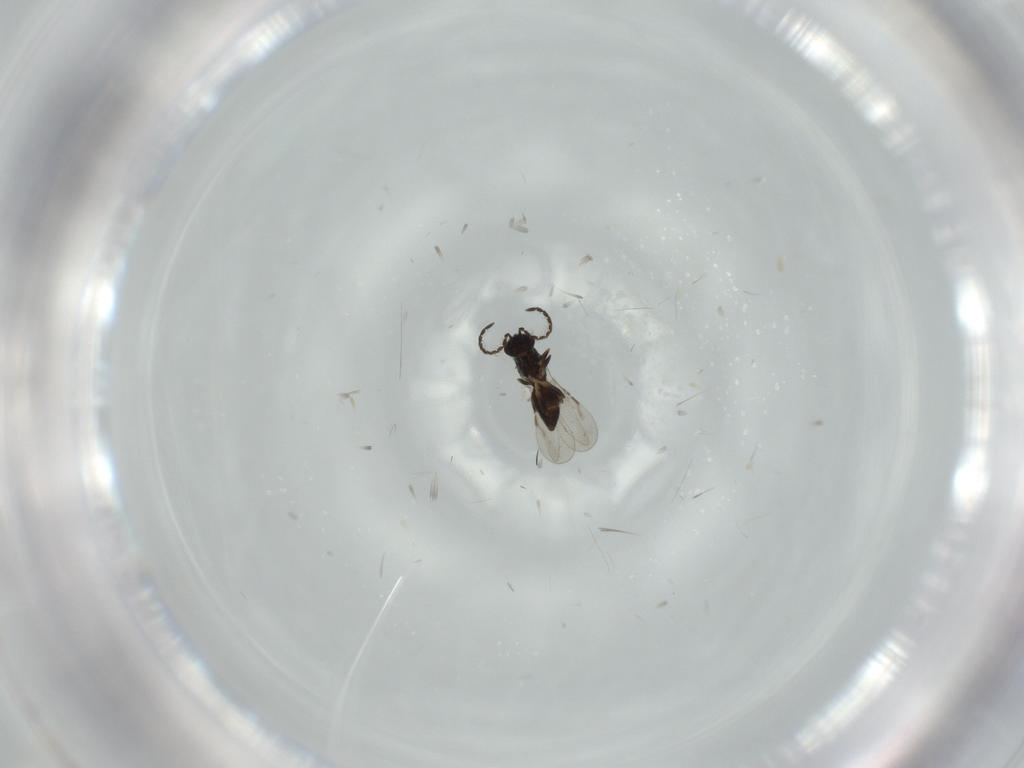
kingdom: Animalia
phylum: Arthropoda
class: Insecta
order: Hymenoptera
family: Ceraphronidae
